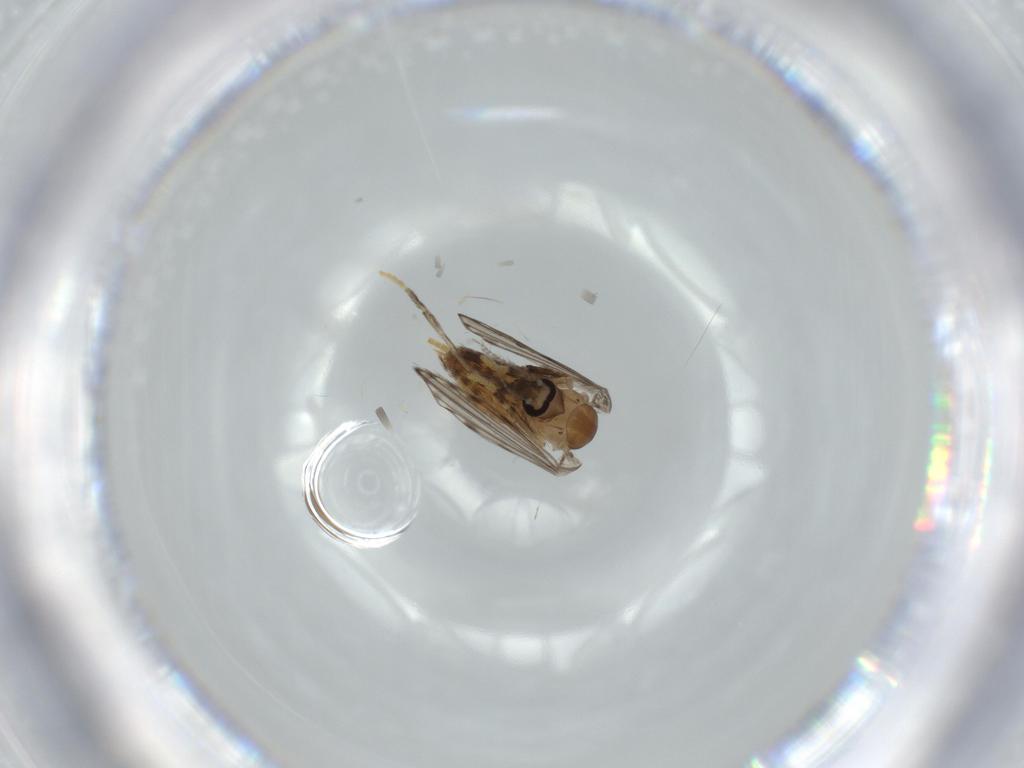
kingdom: Animalia
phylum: Arthropoda
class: Insecta
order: Diptera
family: Psychodidae
